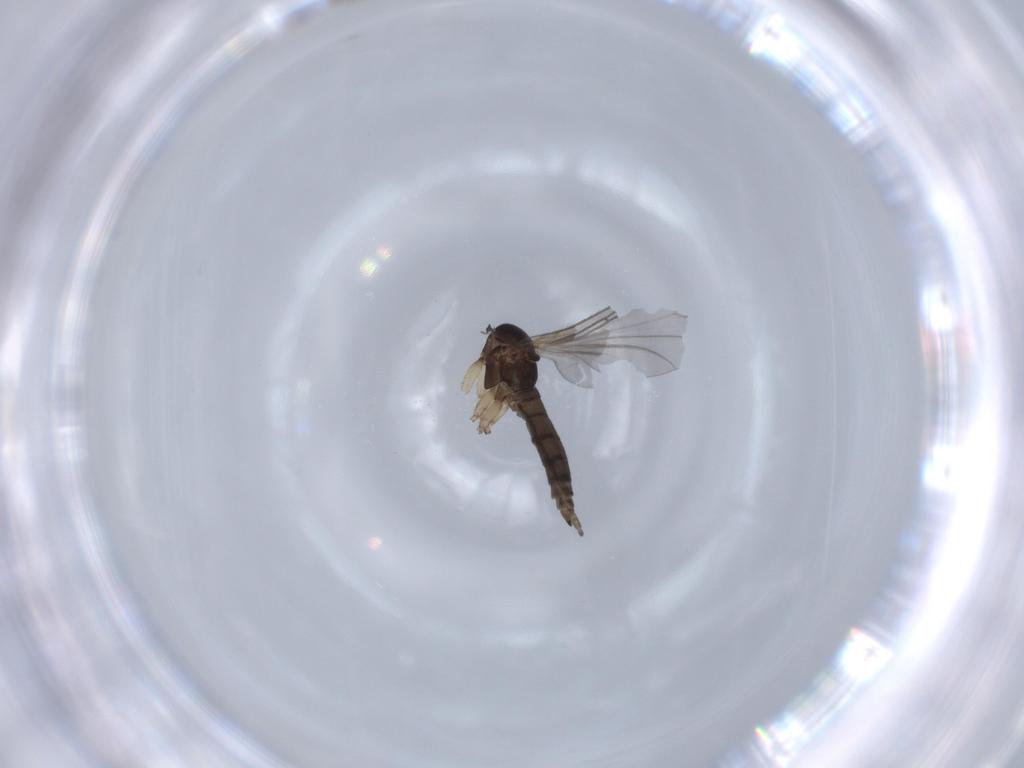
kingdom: Animalia
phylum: Arthropoda
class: Insecta
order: Diptera
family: Sciaridae
